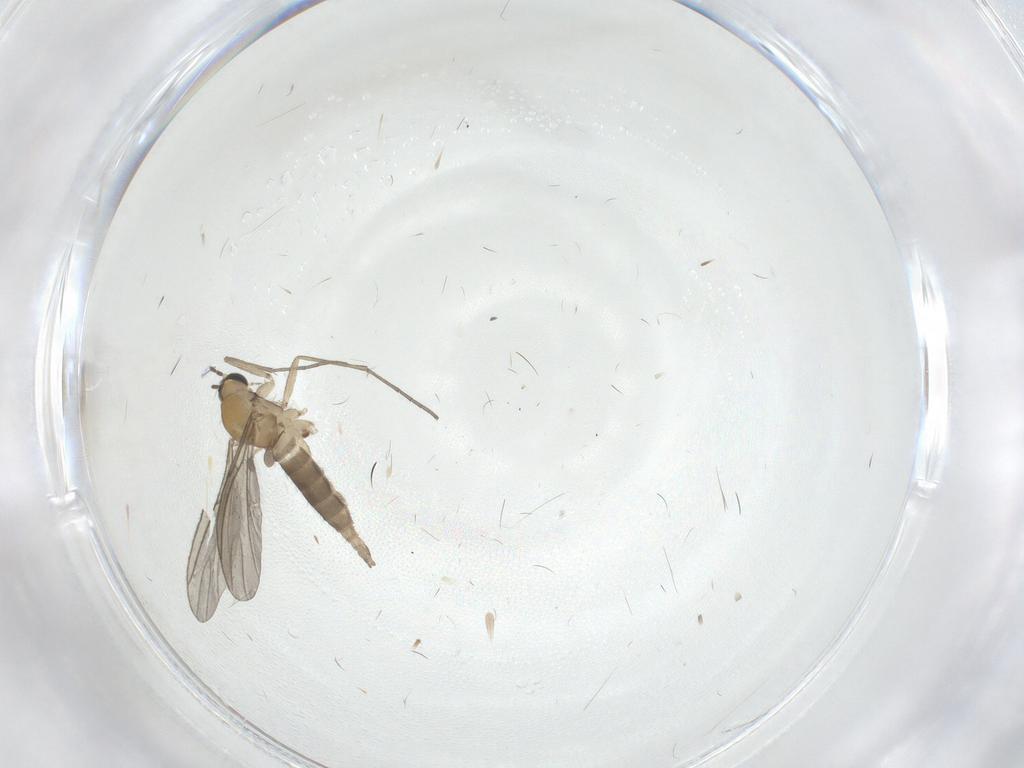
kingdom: Animalia
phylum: Arthropoda
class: Insecta
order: Diptera
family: Sciaridae
